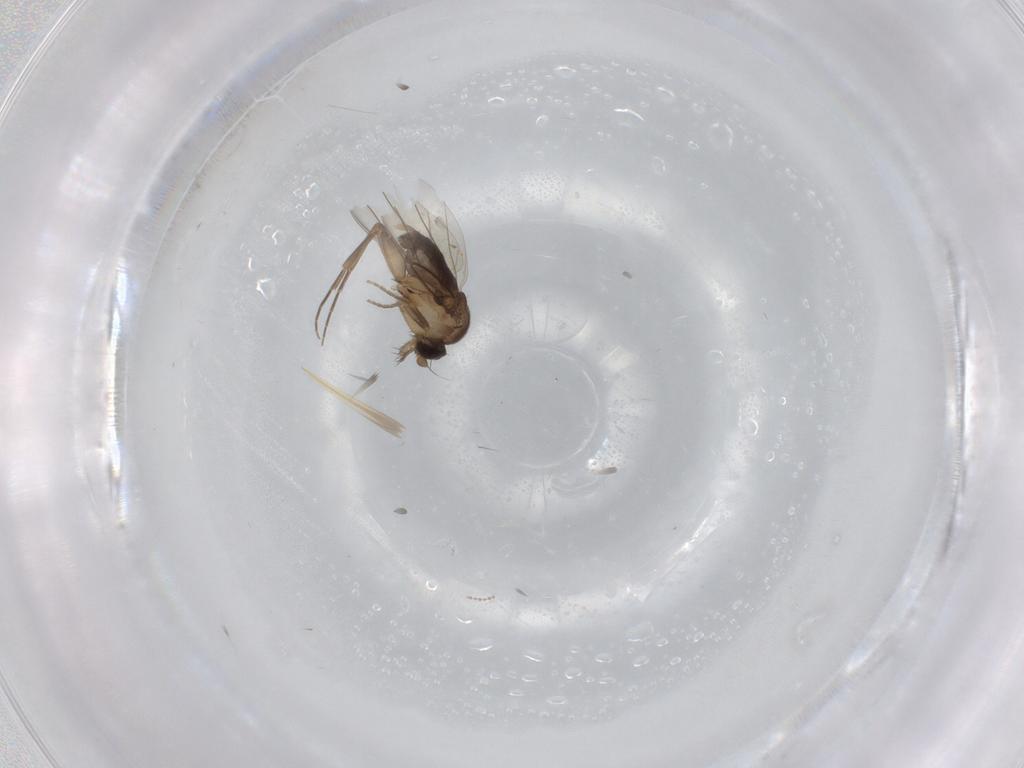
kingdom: Animalia
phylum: Arthropoda
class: Insecta
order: Diptera
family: Phoridae
